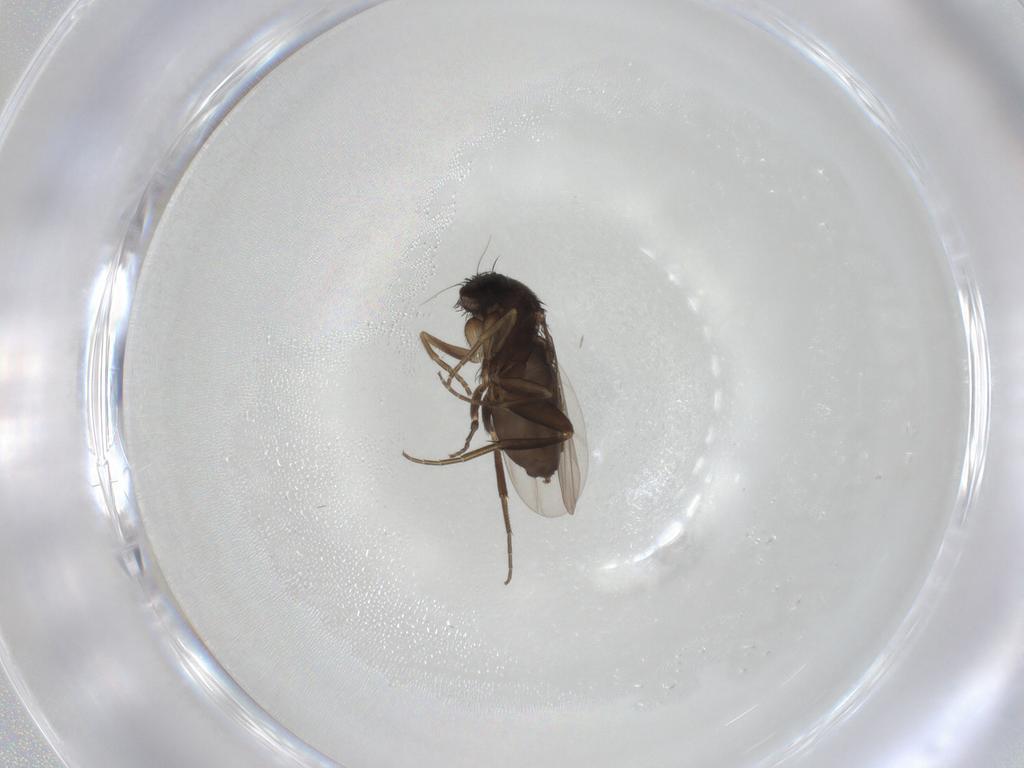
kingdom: Animalia
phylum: Arthropoda
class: Insecta
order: Diptera
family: Phoridae
